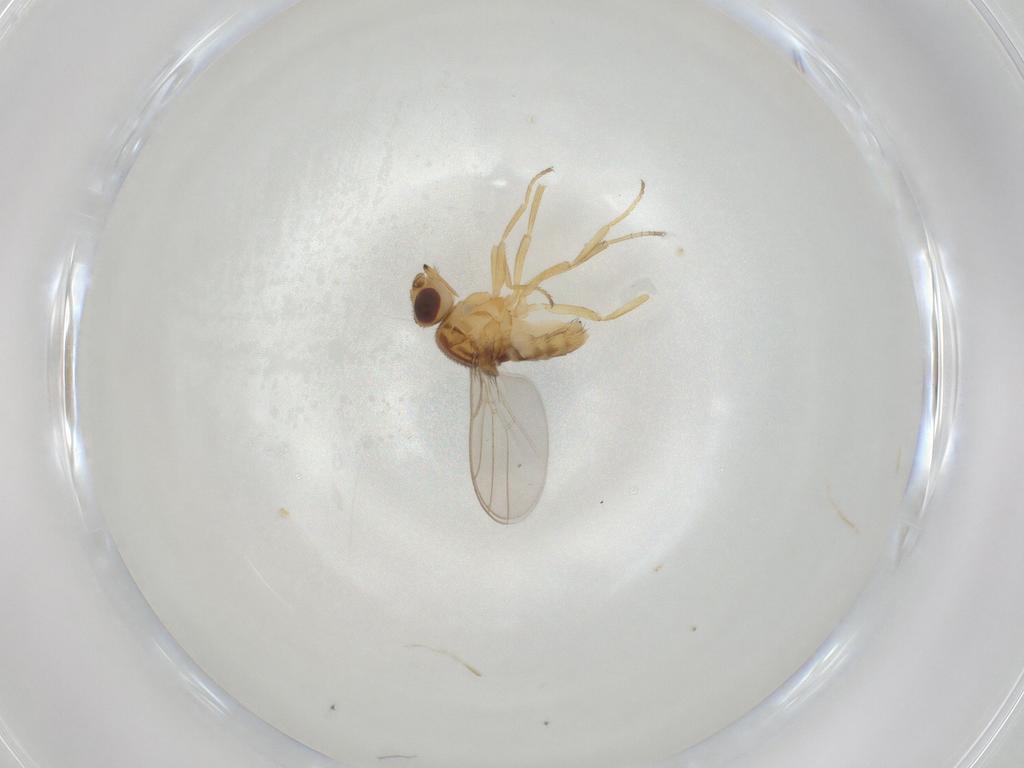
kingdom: Animalia
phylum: Arthropoda
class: Insecta
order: Diptera
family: Chloropidae
